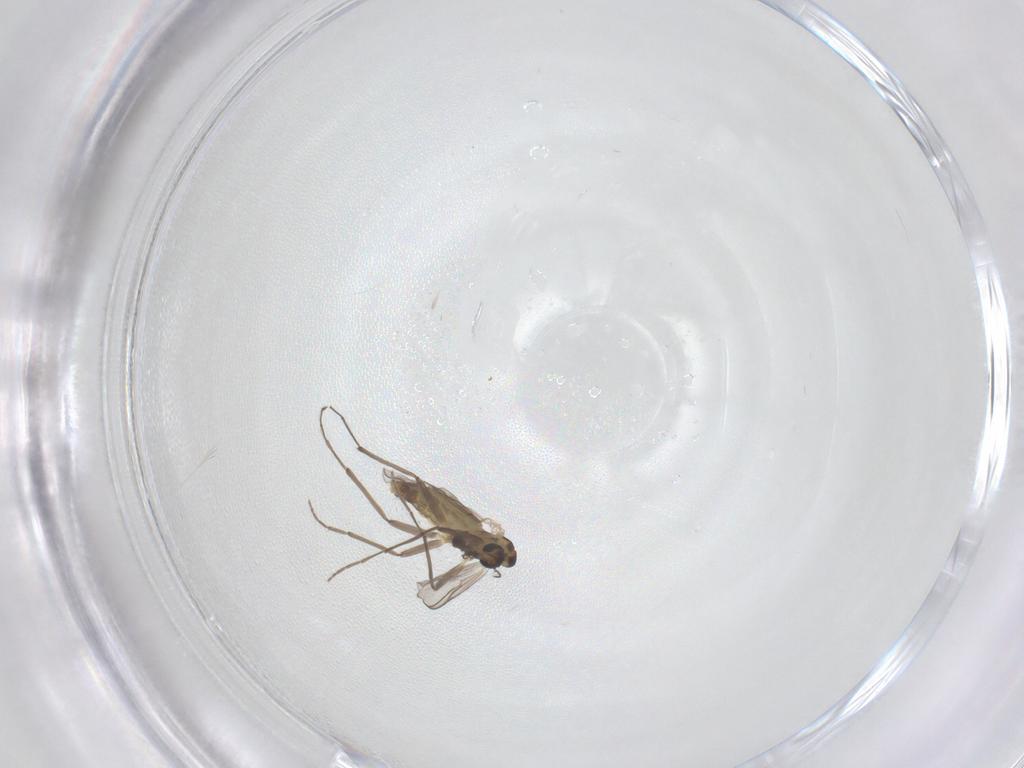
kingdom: Animalia
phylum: Arthropoda
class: Insecta
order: Diptera
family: Chironomidae
